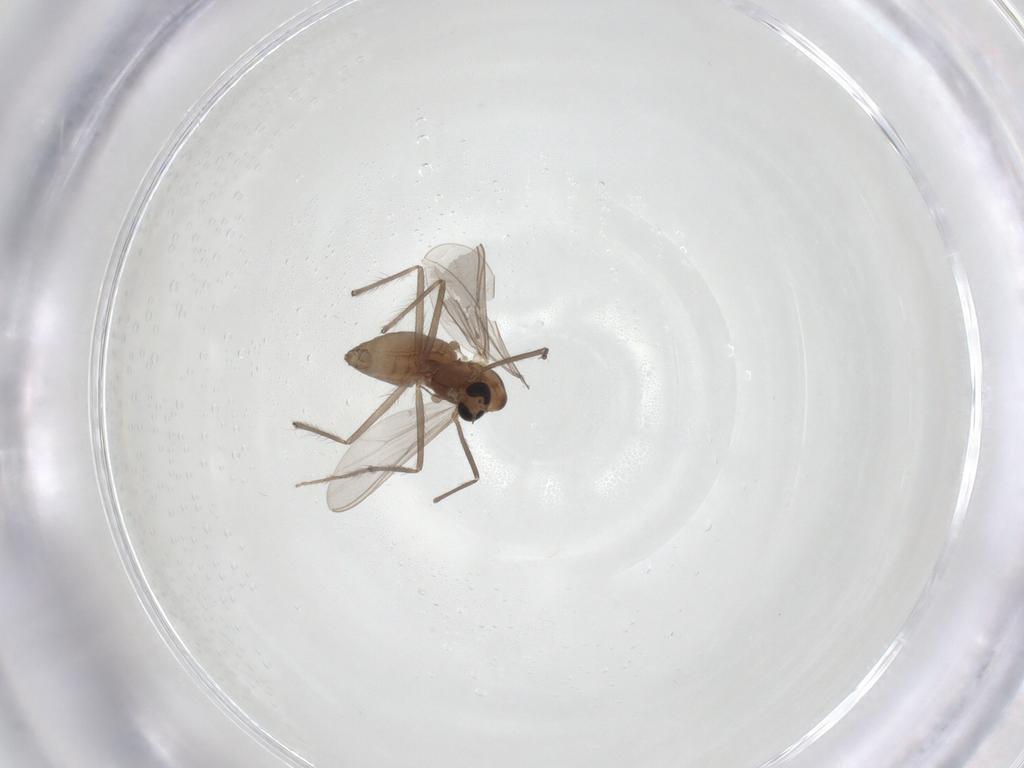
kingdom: Animalia
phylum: Arthropoda
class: Insecta
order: Diptera
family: Chironomidae
